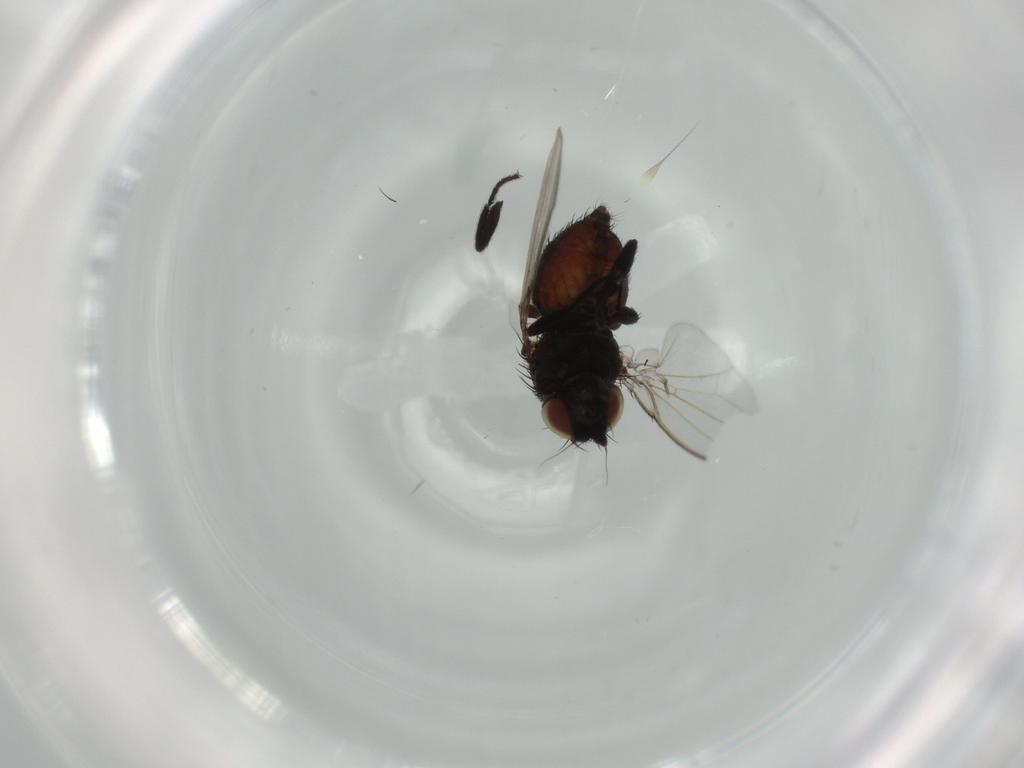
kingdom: Animalia
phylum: Arthropoda
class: Insecta
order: Diptera
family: Milichiidae
